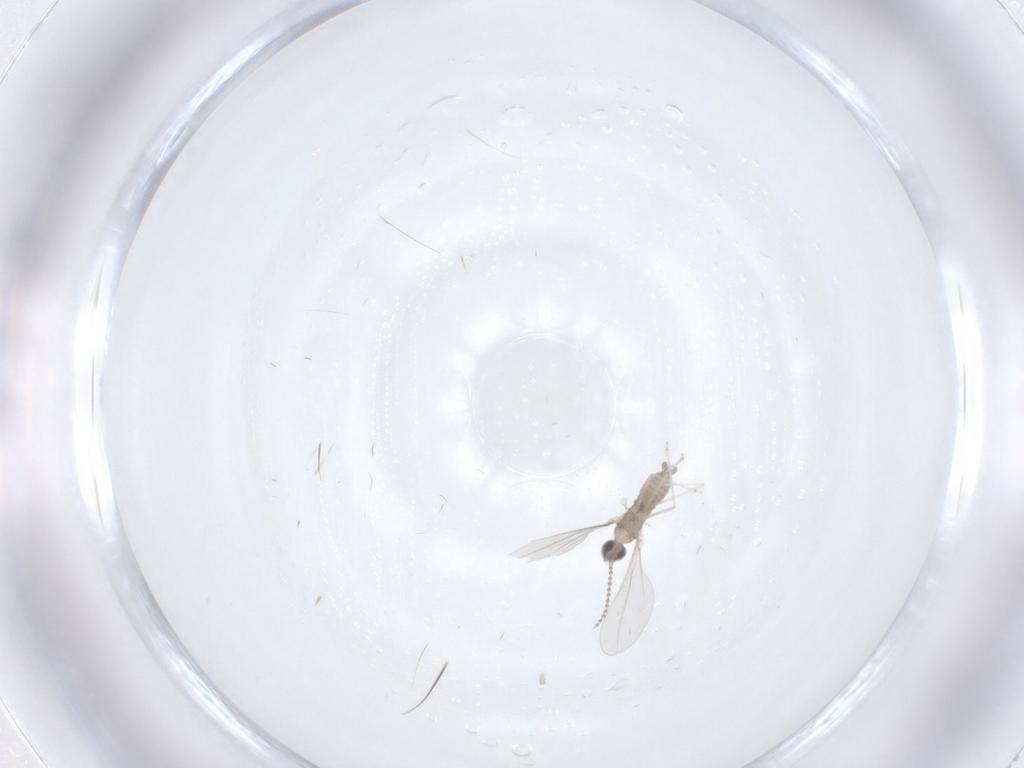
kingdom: Animalia
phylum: Arthropoda
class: Insecta
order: Diptera
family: Cecidomyiidae
